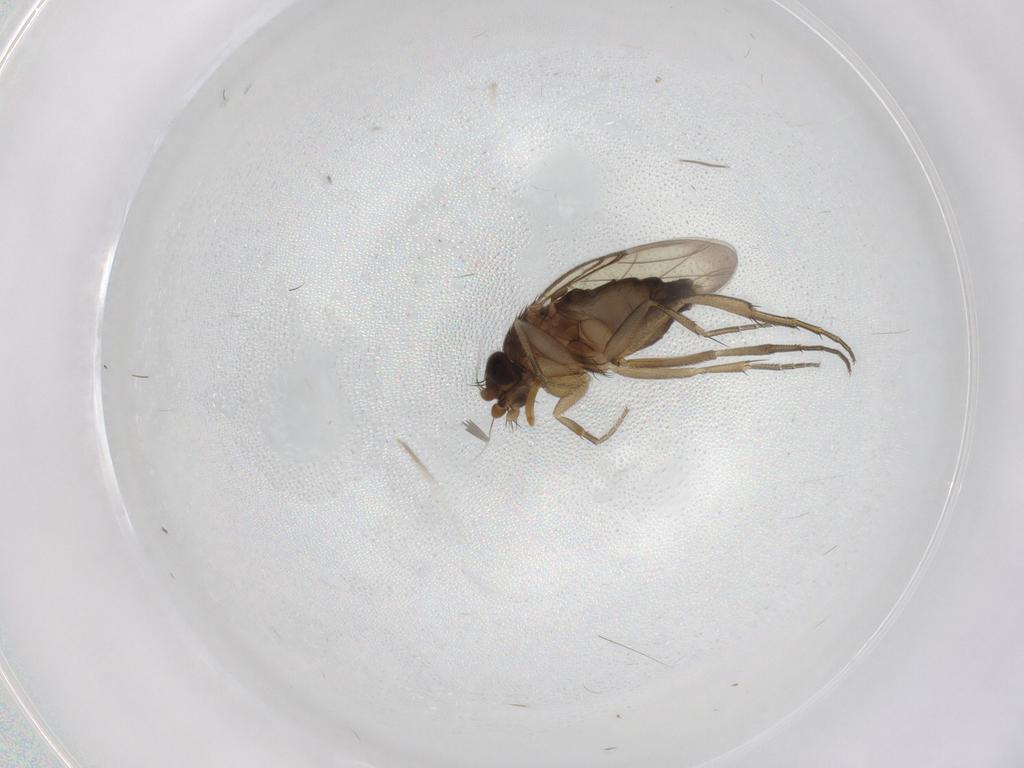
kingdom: Animalia
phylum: Arthropoda
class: Insecta
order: Diptera
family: Phoridae
